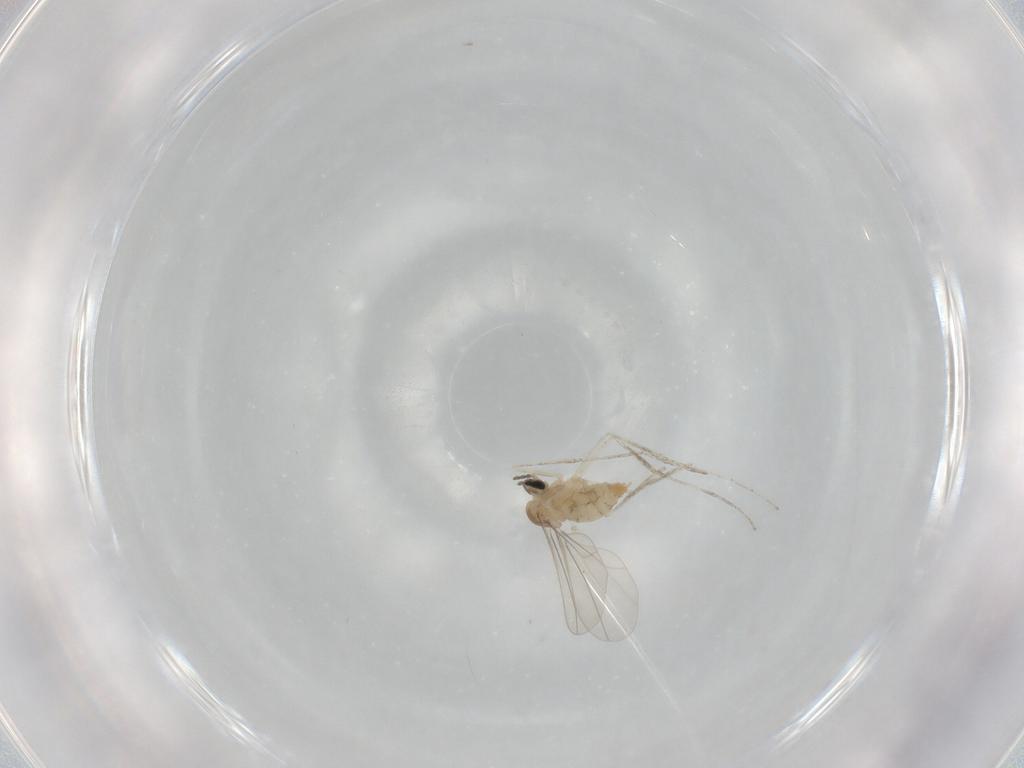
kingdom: Animalia
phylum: Arthropoda
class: Insecta
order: Diptera
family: Cecidomyiidae
